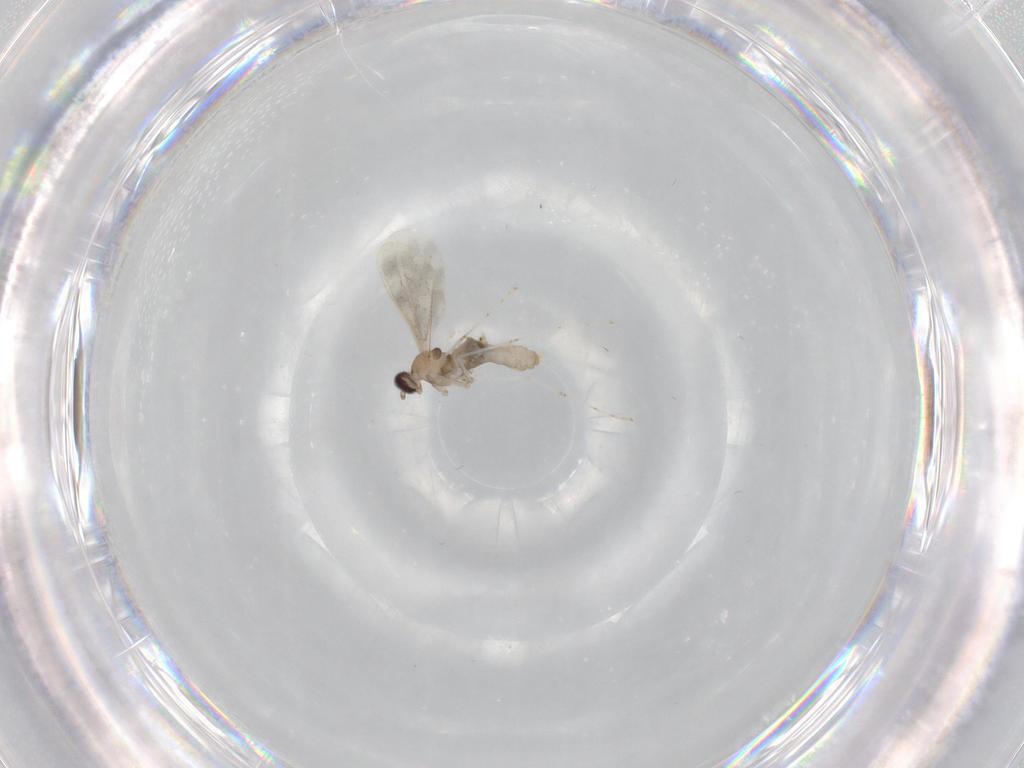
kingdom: Animalia
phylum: Arthropoda
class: Insecta
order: Diptera
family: Cecidomyiidae
